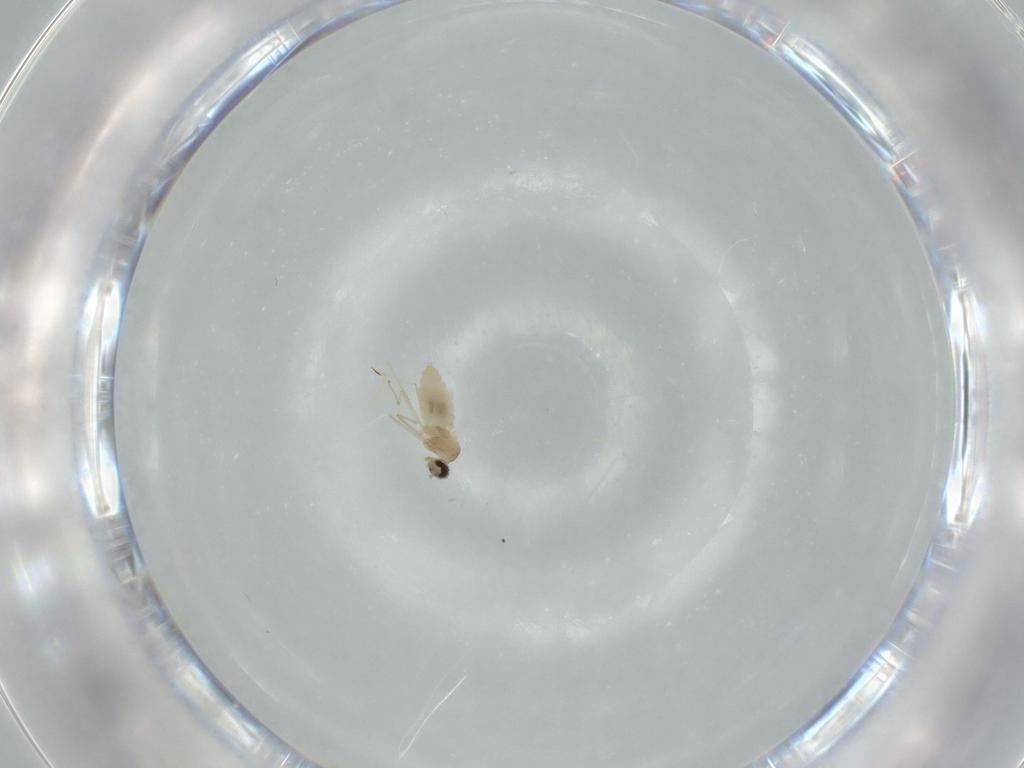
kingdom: Animalia
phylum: Arthropoda
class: Insecta
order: Diptera
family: Cecidomyiidae
